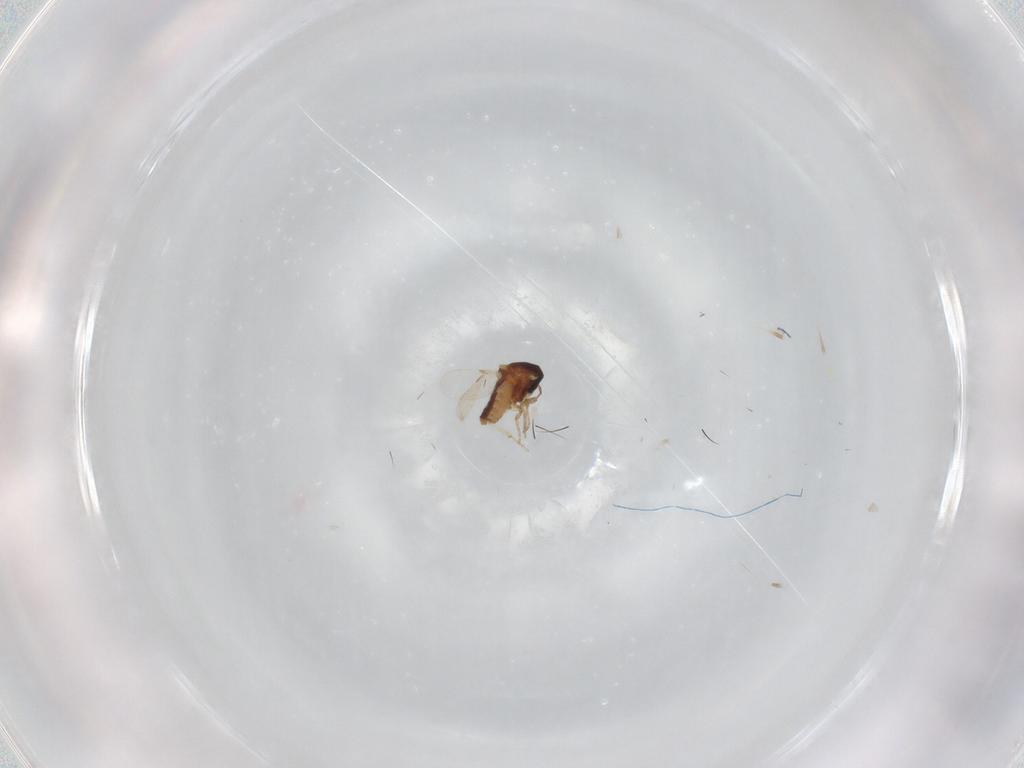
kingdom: Animalia
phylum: Arthropoda
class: Insecta
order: Diptera
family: Ceratopogonidae
